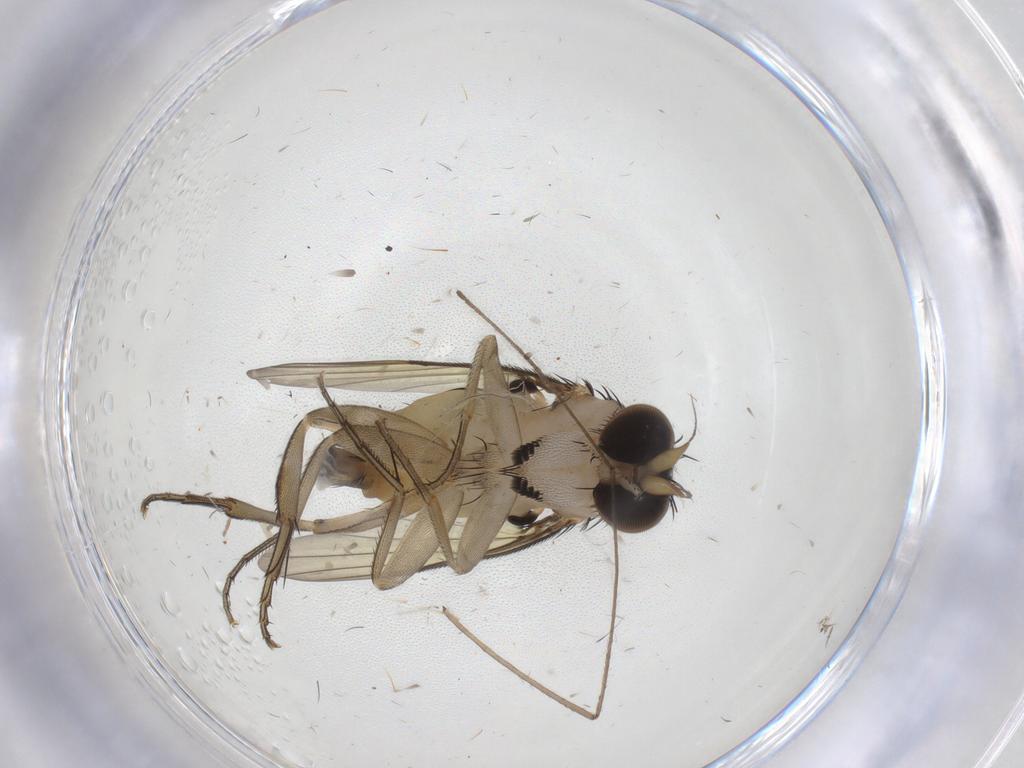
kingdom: Animalia
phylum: Arthropoda
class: Insecta
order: Diptera
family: Phoridae
